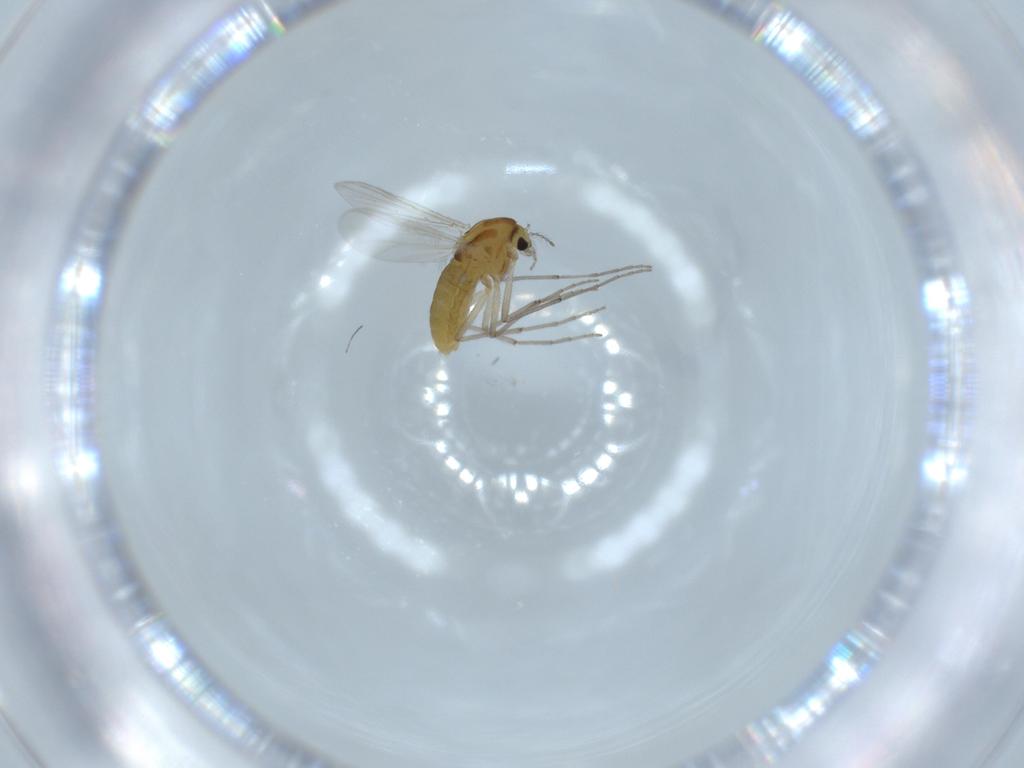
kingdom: Animalia
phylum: Arthropoda
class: Insecta
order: Diptera
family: Chironomidae
